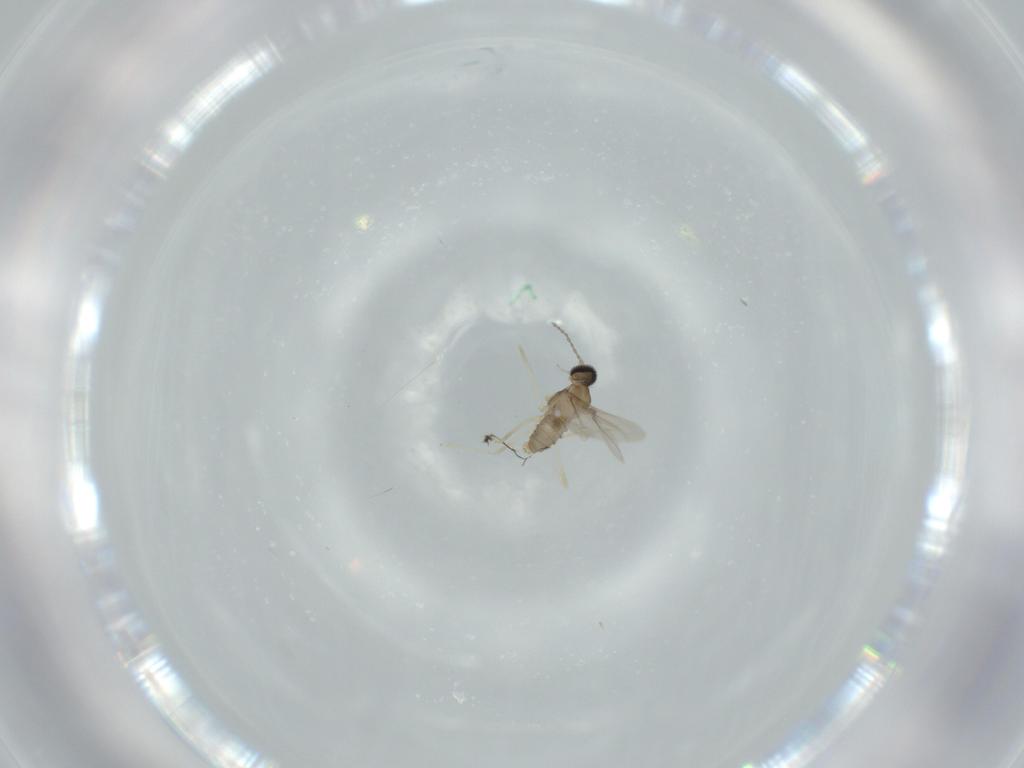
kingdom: Animalia
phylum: Arthropoda
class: Insecta
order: Diptera
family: Cecidomyiidae
